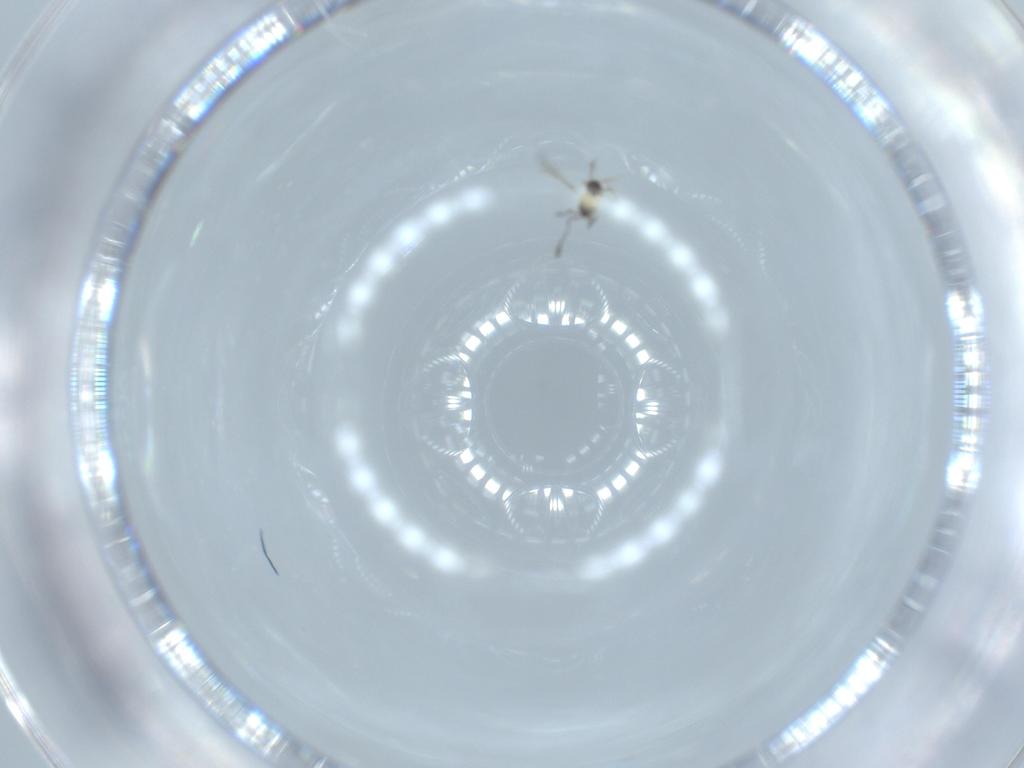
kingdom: Animalia
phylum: Arthropoda
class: Insecta
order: Hymenoptera
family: Mymaridae
